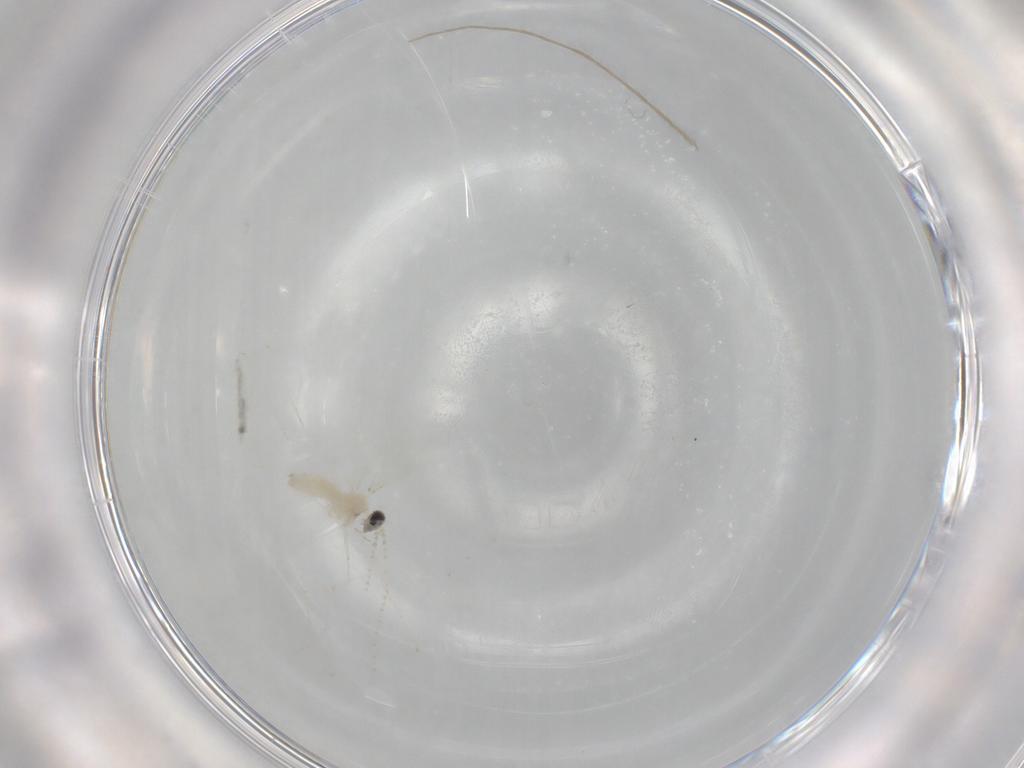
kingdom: Animalia
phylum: Arthropoda
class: Insecta
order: Diptera
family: Cecidomyiidae
